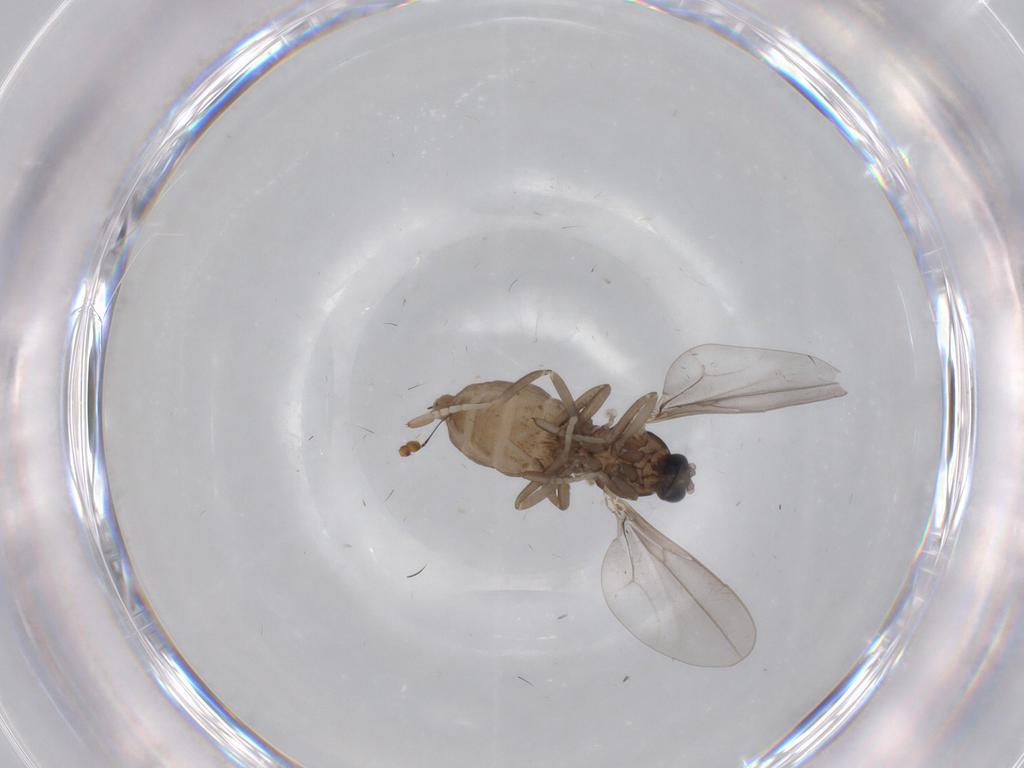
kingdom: Animalia
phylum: Arthropoda
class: Insecta
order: Diptera
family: Cecidomyiidae
